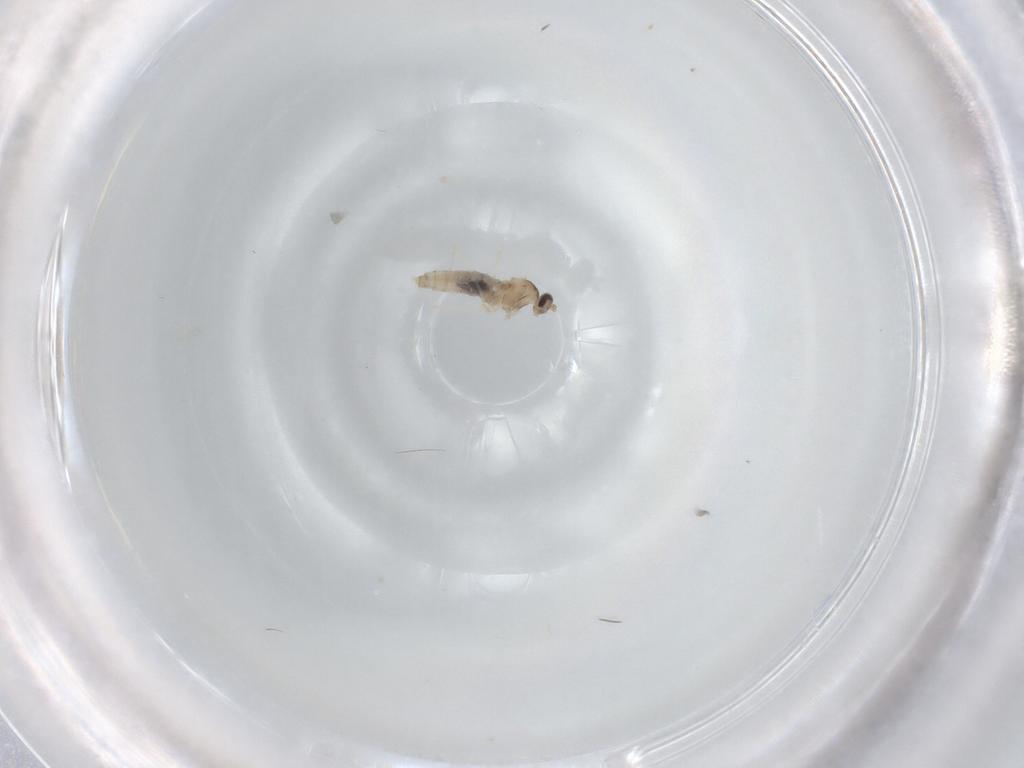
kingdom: Animalia
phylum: Arthropoda
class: Insecta
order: Diptera
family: Cecidomyiidae
